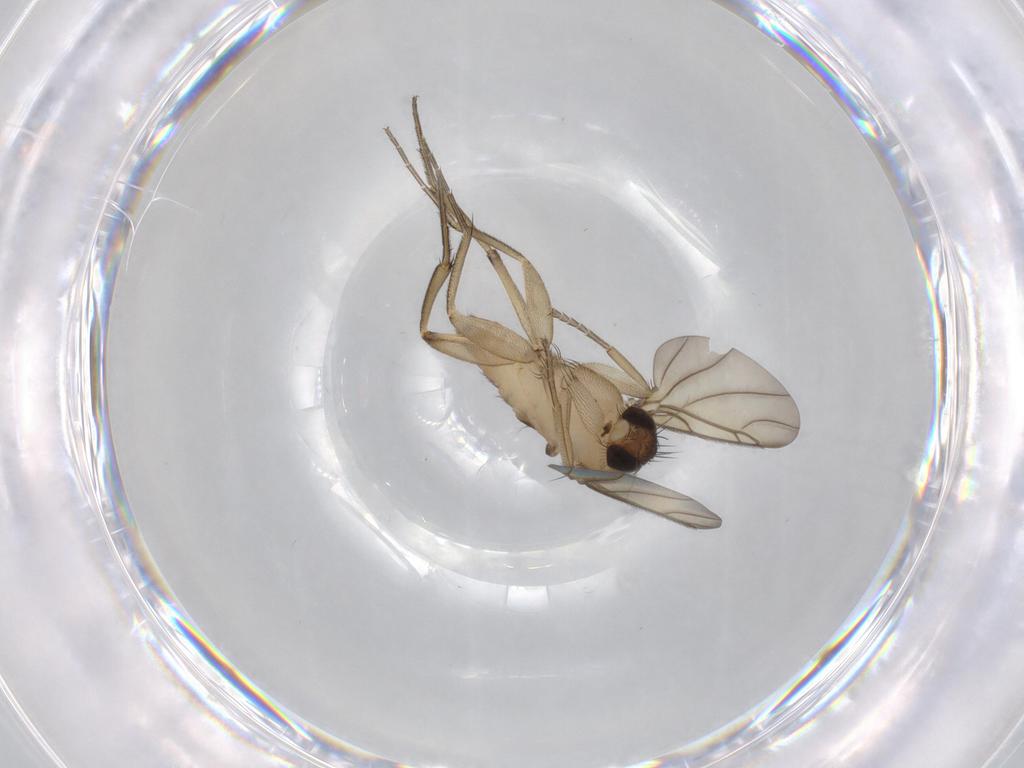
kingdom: Animalia
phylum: Arthropoda
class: Insecta
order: Diptera
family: Phoridae
